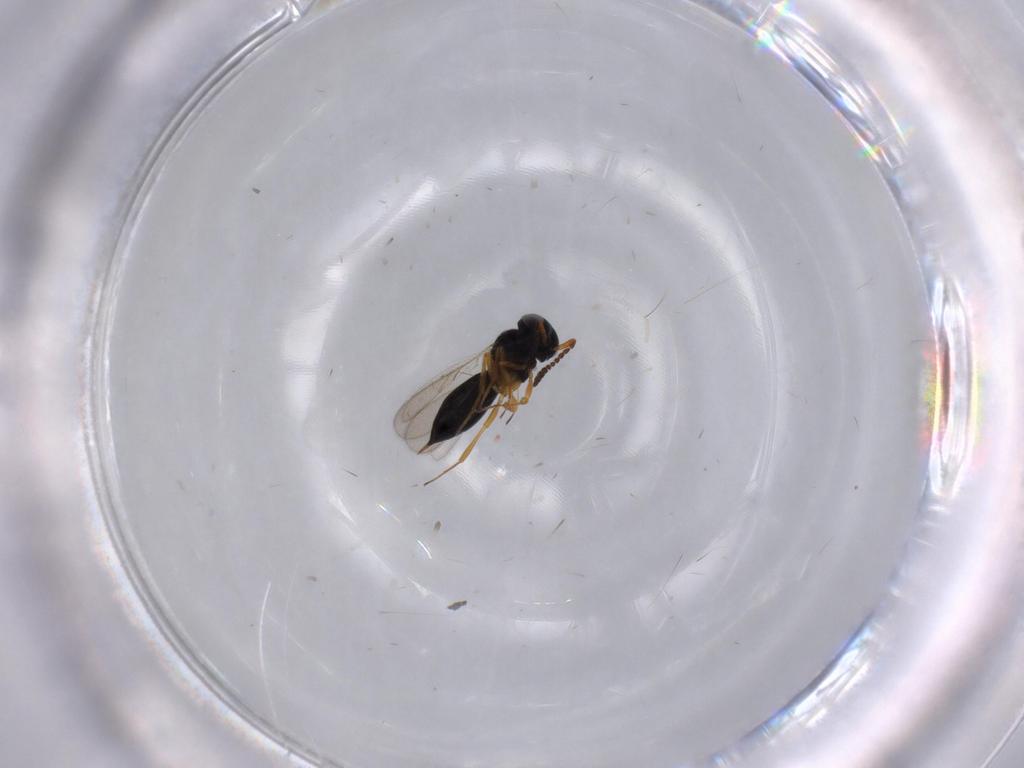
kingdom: Animalia
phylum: Arthropoda
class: Insecta
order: Hymenoptera
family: Scelionidae
